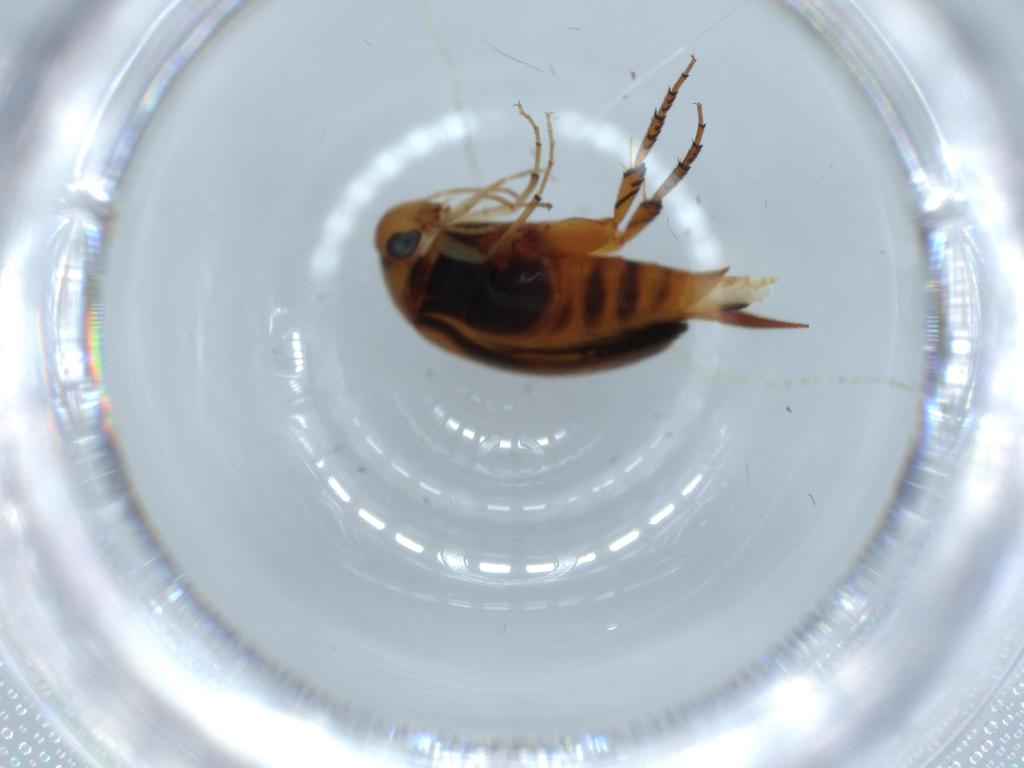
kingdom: Animalia
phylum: Arthropoda
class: Insecta
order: Coleoptera
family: Mordellidae
